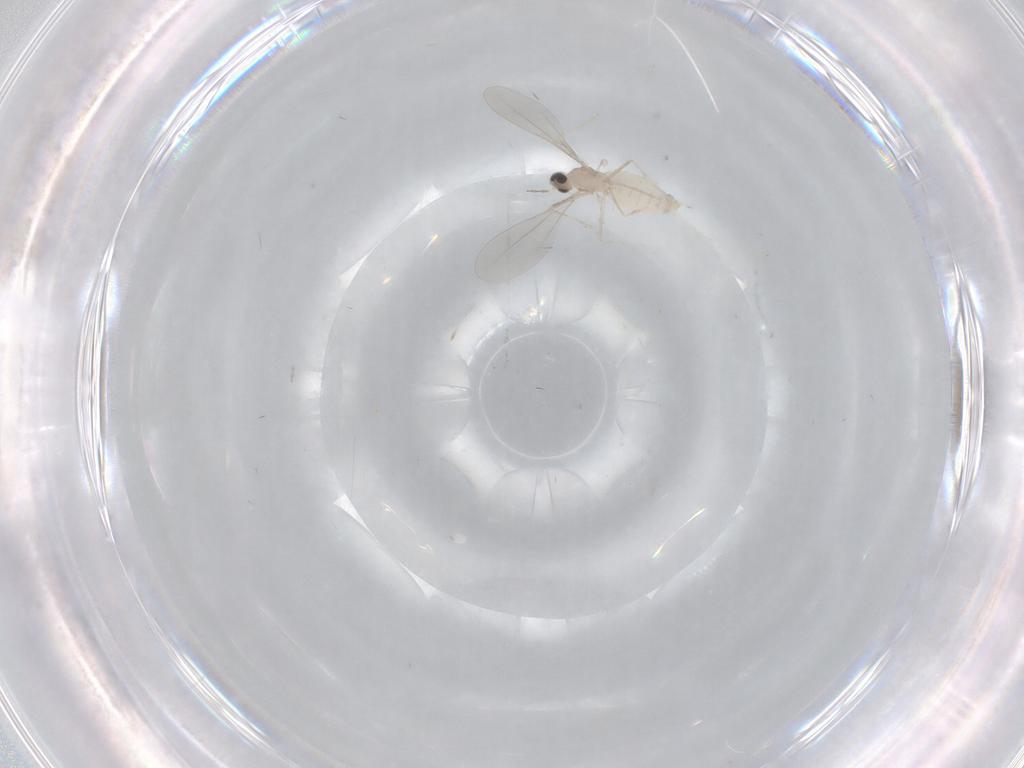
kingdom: Animalia
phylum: Arthropoda
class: Insecta
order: Diptera
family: Cecidomyiidae
